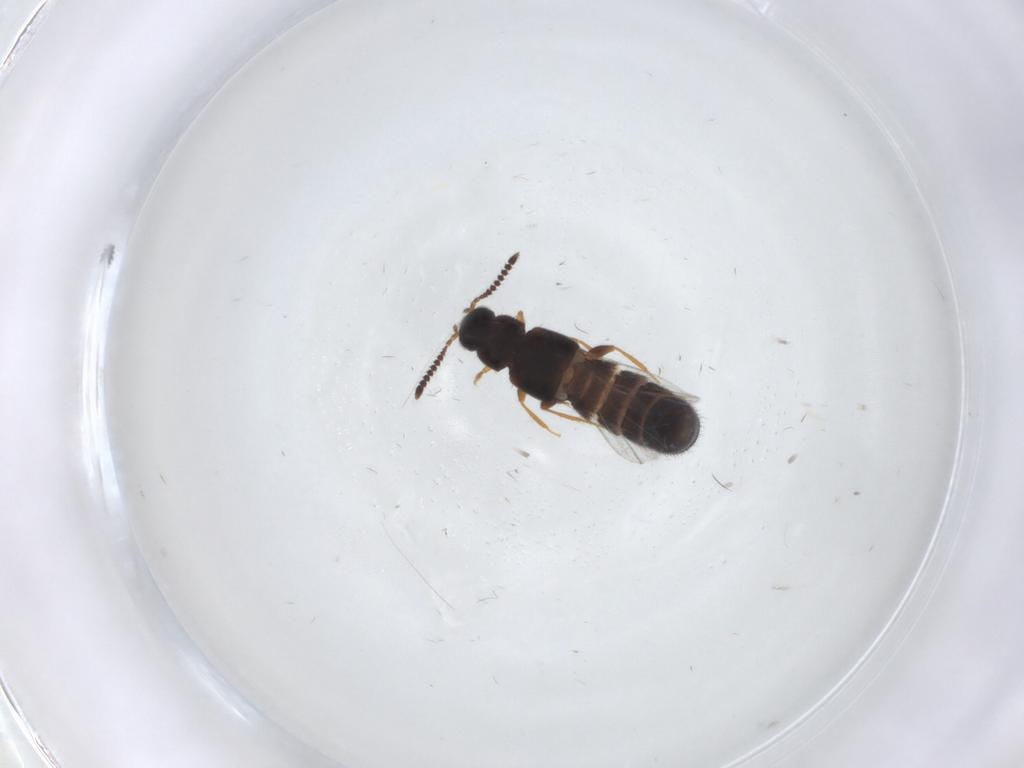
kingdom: Animalia
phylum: Arthropoda
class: Insecta
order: Coleoptera
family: Staphylinidae
